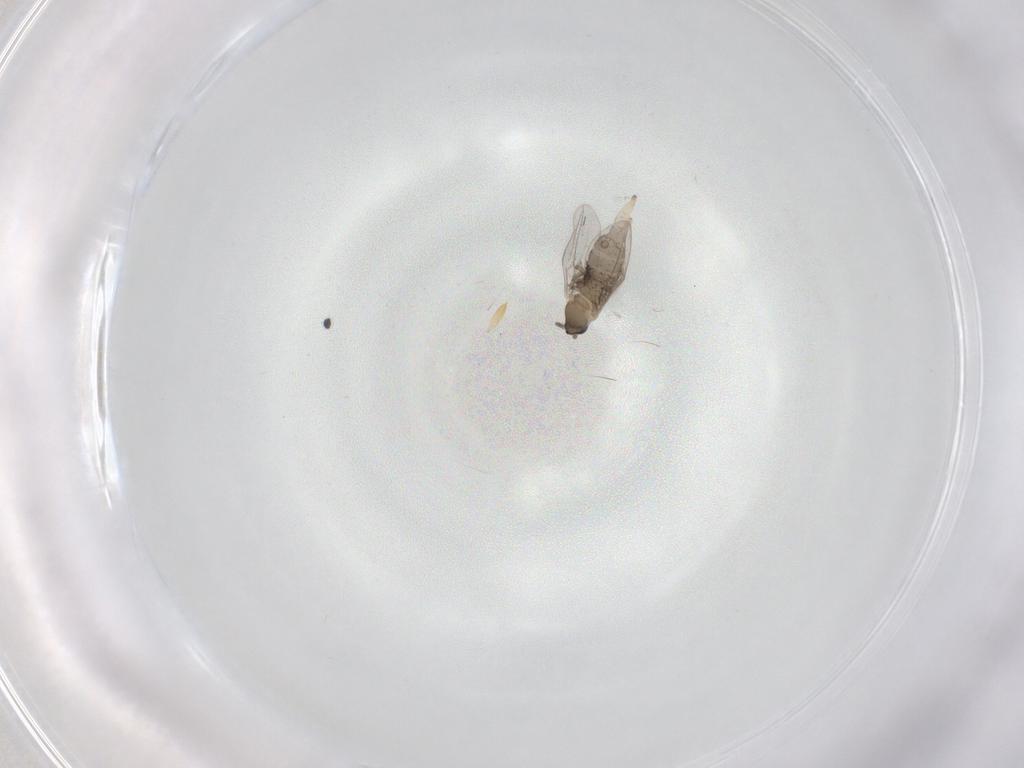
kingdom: Animalia
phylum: Arthropoda
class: Insecta
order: Diptera
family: Cecidomyiidae
